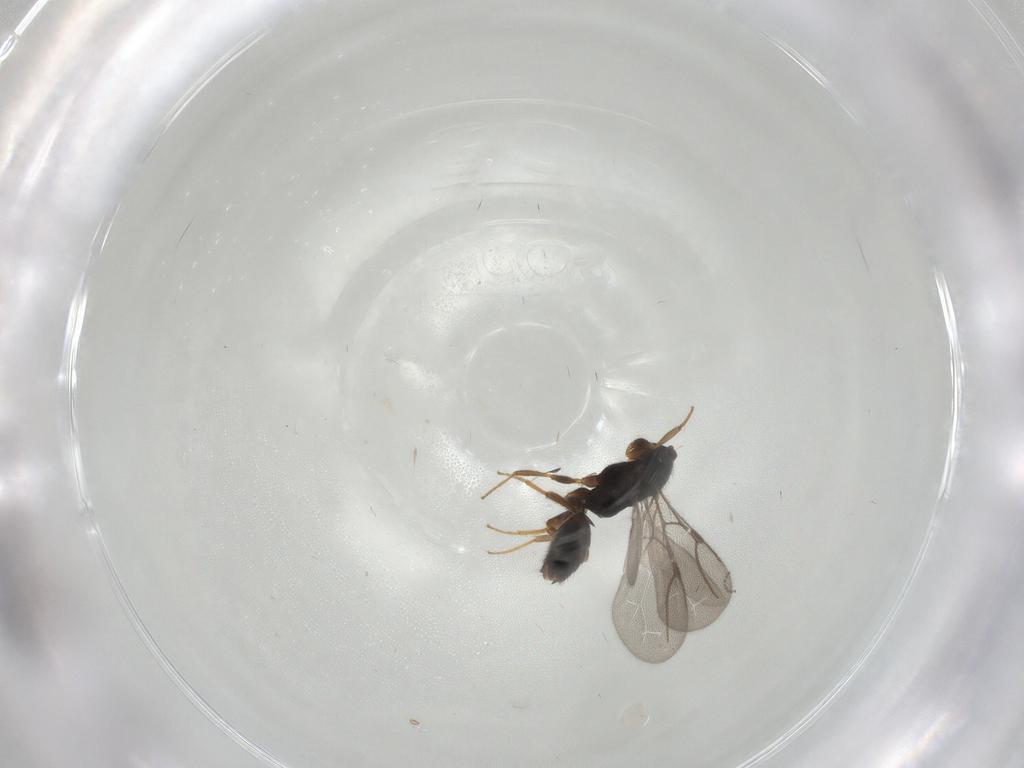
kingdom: Animalia
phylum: Arthropoda
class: Insecta
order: Hymenoptera
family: Bethylidae
